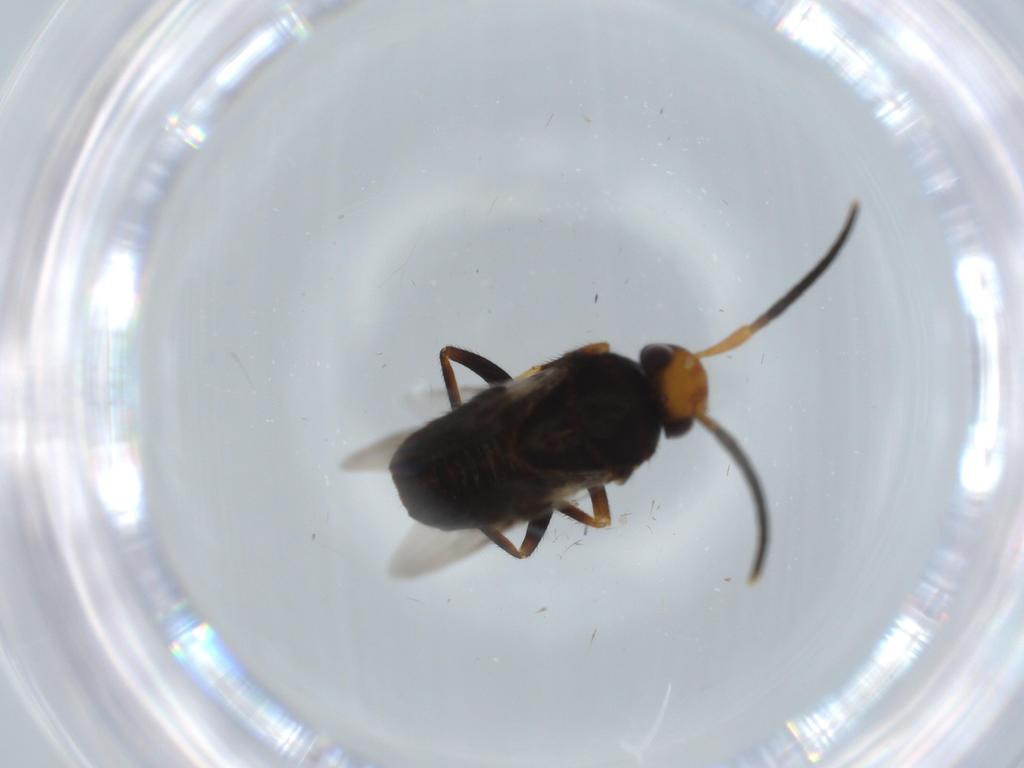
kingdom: Animalia
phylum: Arthropoda
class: Insecta
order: Hymenoptera
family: Encyrtidae
